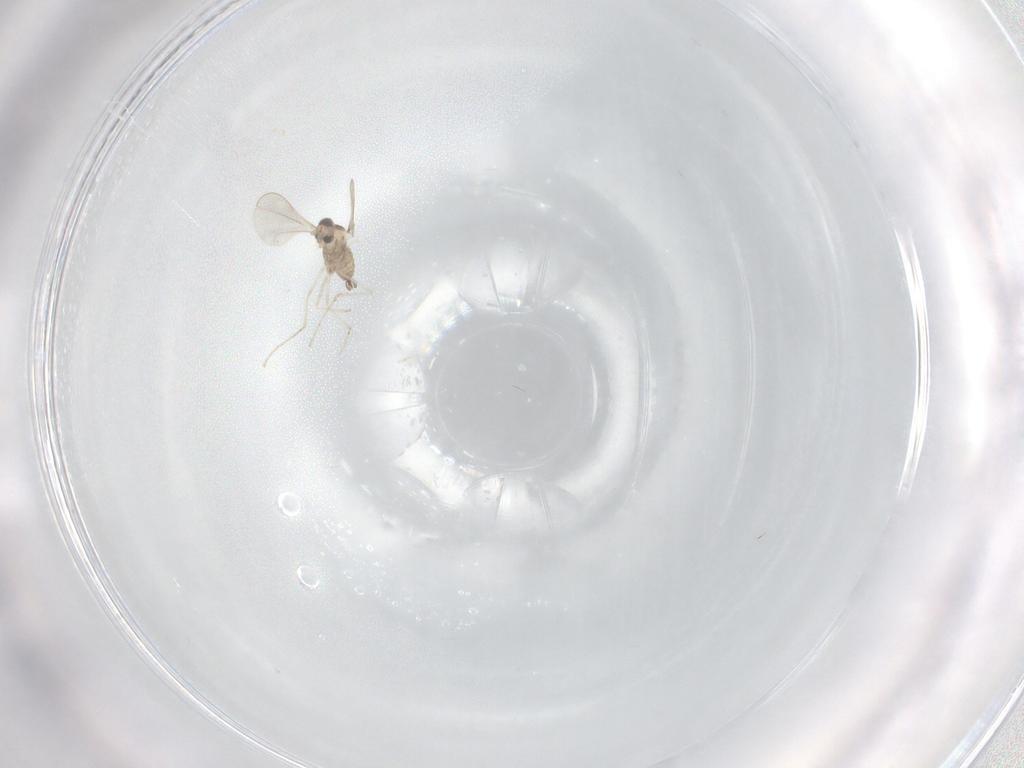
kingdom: Animalia
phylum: Arthropoda
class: Insecta
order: Diptera
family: Cecidomyiidae
